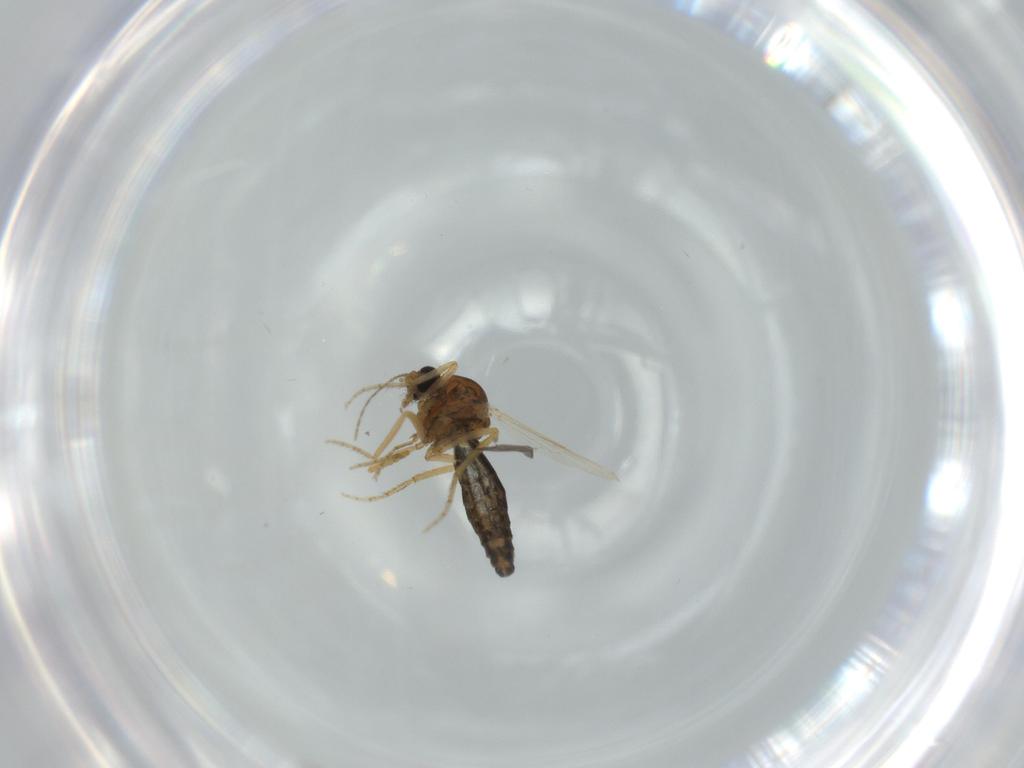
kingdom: Animalia
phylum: Arthropoda
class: Insecta
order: Diptera
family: Ceratopogonidae
